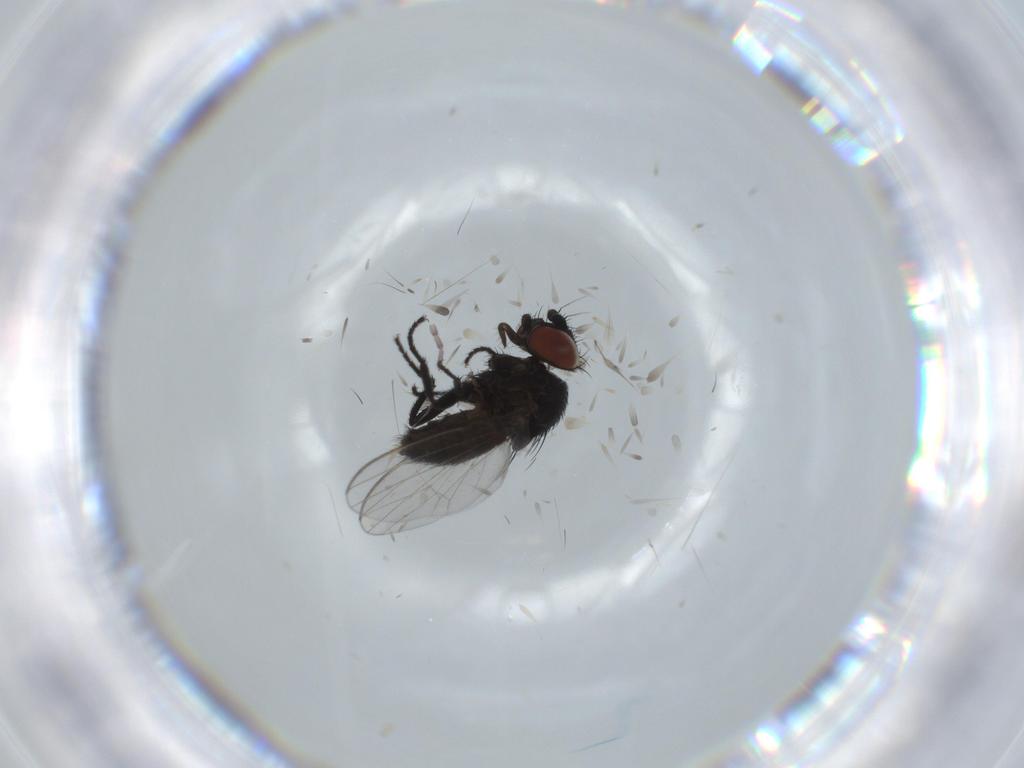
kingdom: Animalia
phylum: Arthropoda
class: Insecta
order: Diptera
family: Milichiidae
